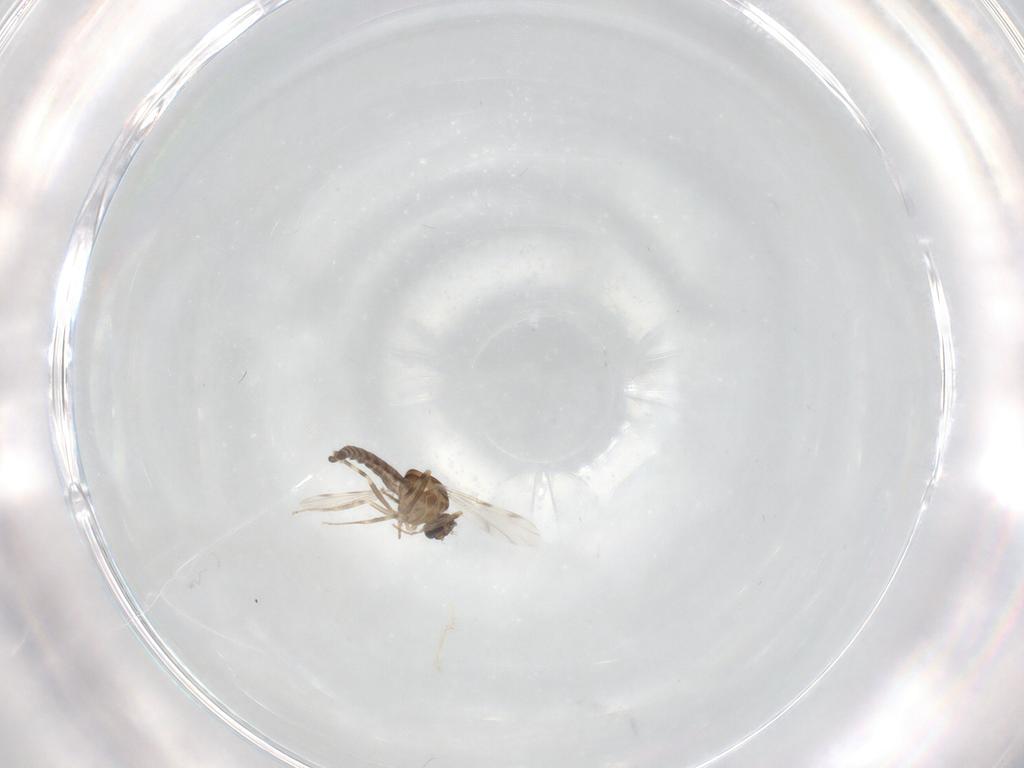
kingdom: Animalia
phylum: Arthropoda
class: Insecta
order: Diptera
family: Ceratopogonidae
